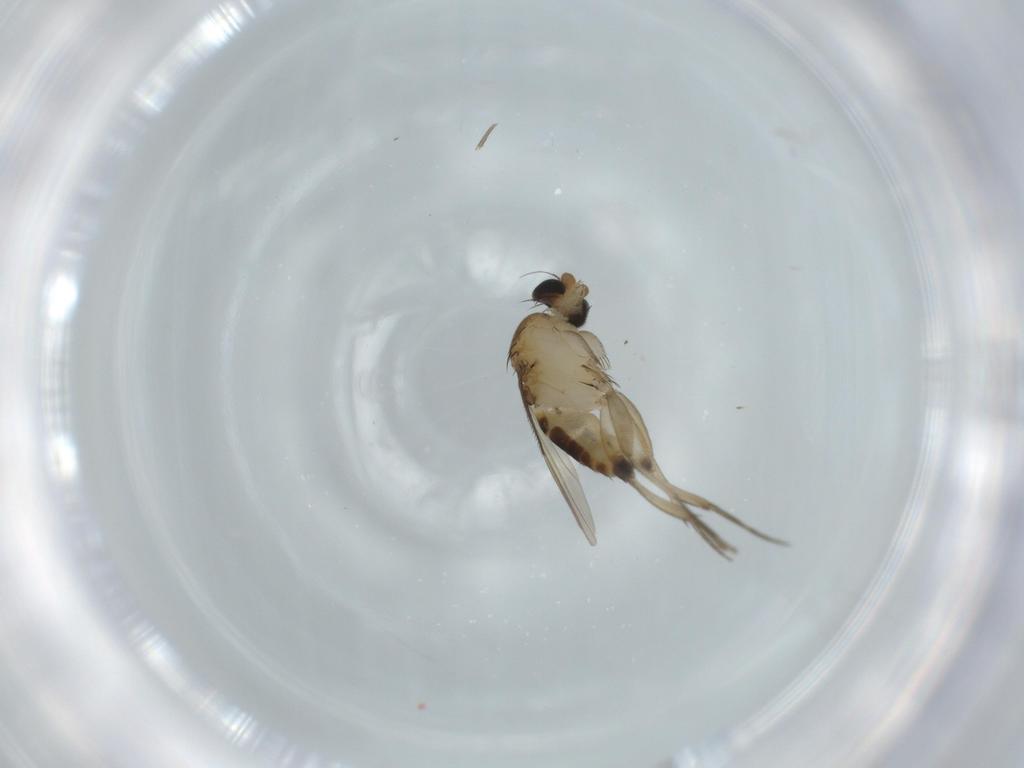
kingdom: Animalia
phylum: Arthropoda
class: Insecta
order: Diptera
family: Phoridae
